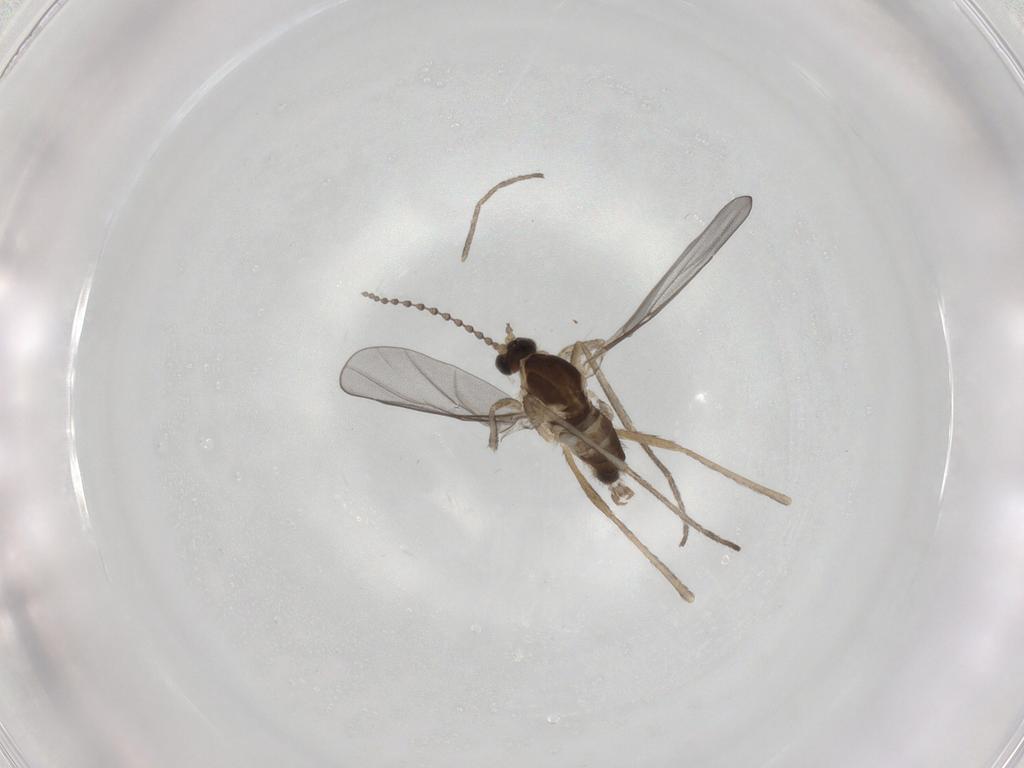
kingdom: Animalia
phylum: Arthropoda
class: Insecta
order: Diptera
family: Cecidomyiidae
